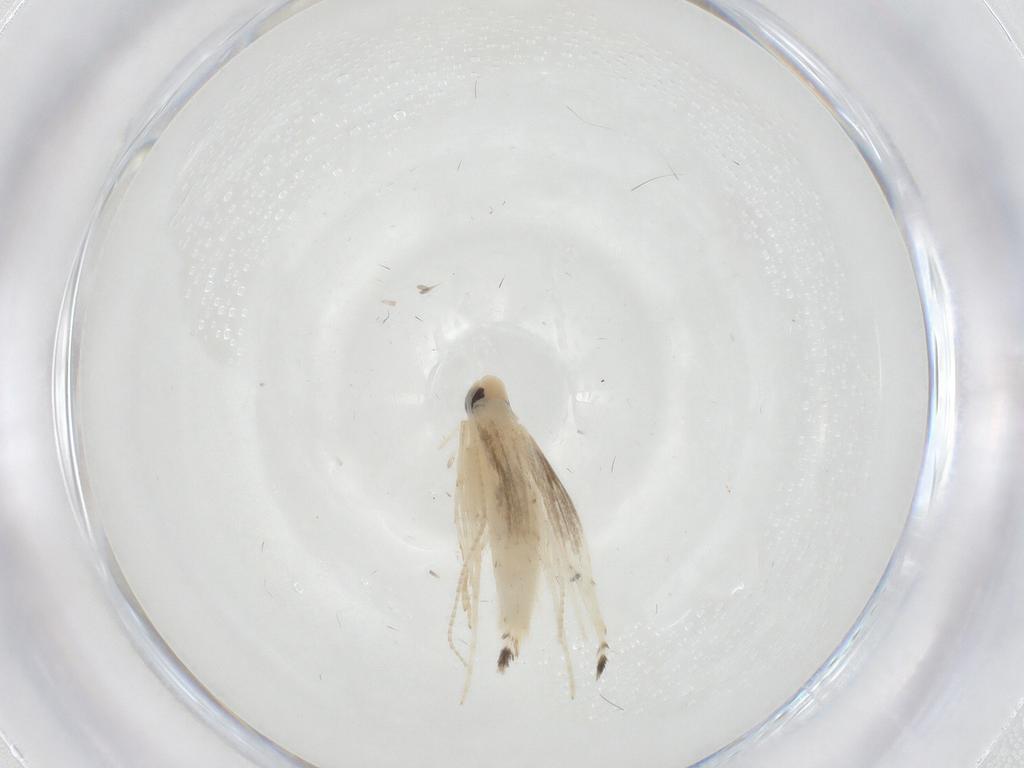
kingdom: Animalia
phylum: Arthropoda
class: Insecta
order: Lepidoptera
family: Gracillariidae
